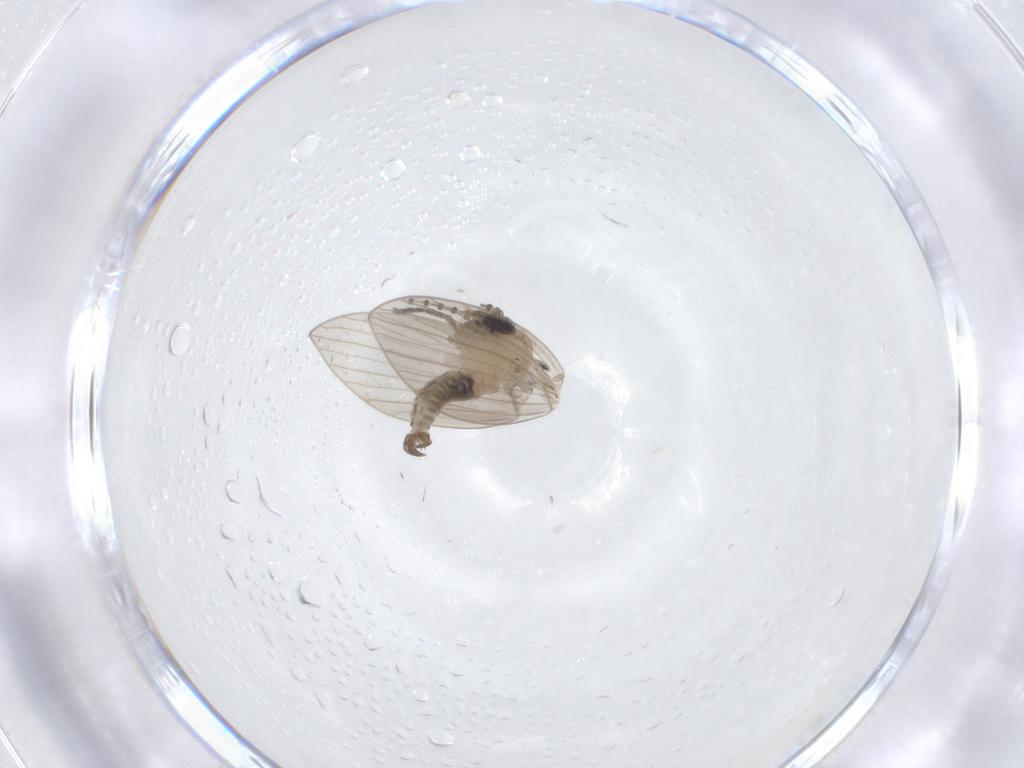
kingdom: Animalia
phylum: Arthropoda
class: Insecta
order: Diptera
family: Psychodidae
